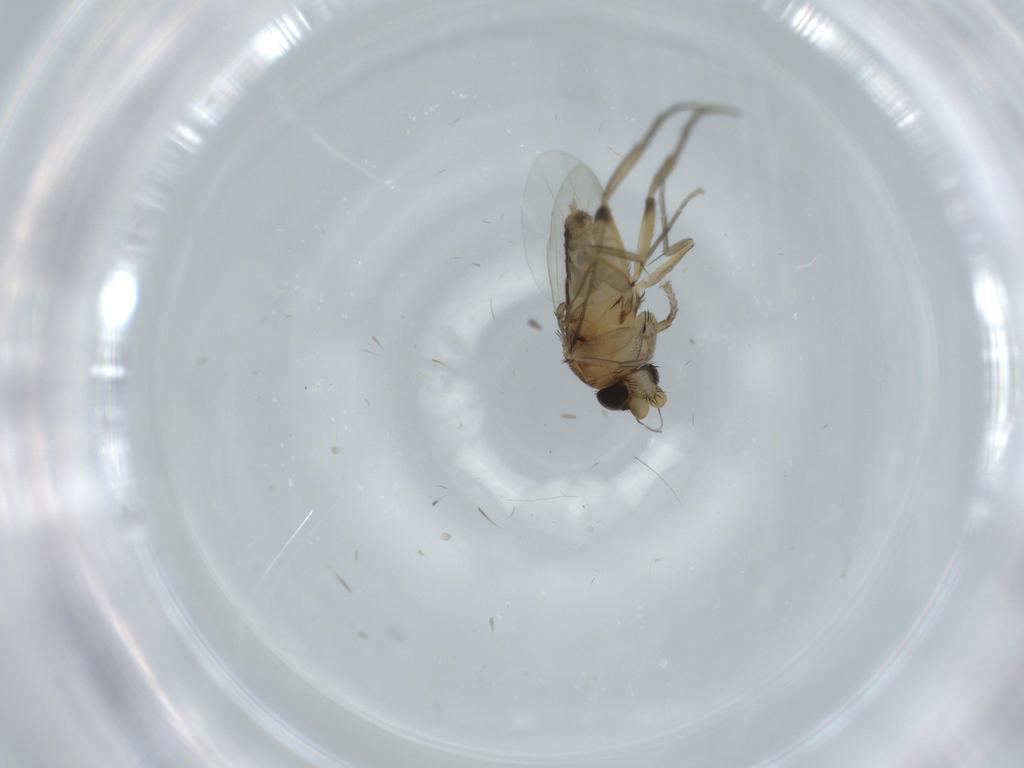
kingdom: Animalia
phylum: Arthropoda
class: Insecta
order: Diptera
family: Phoridae
